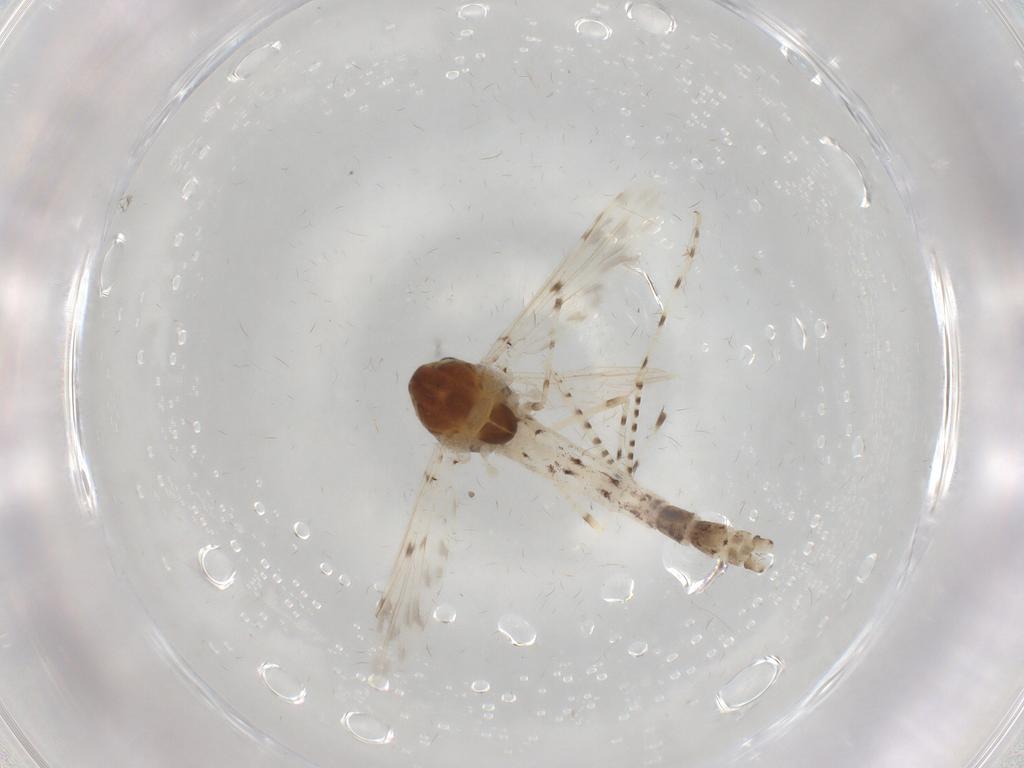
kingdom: Animalia
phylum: Arthropoda
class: Insecta
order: Diptera
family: Chironomidae
